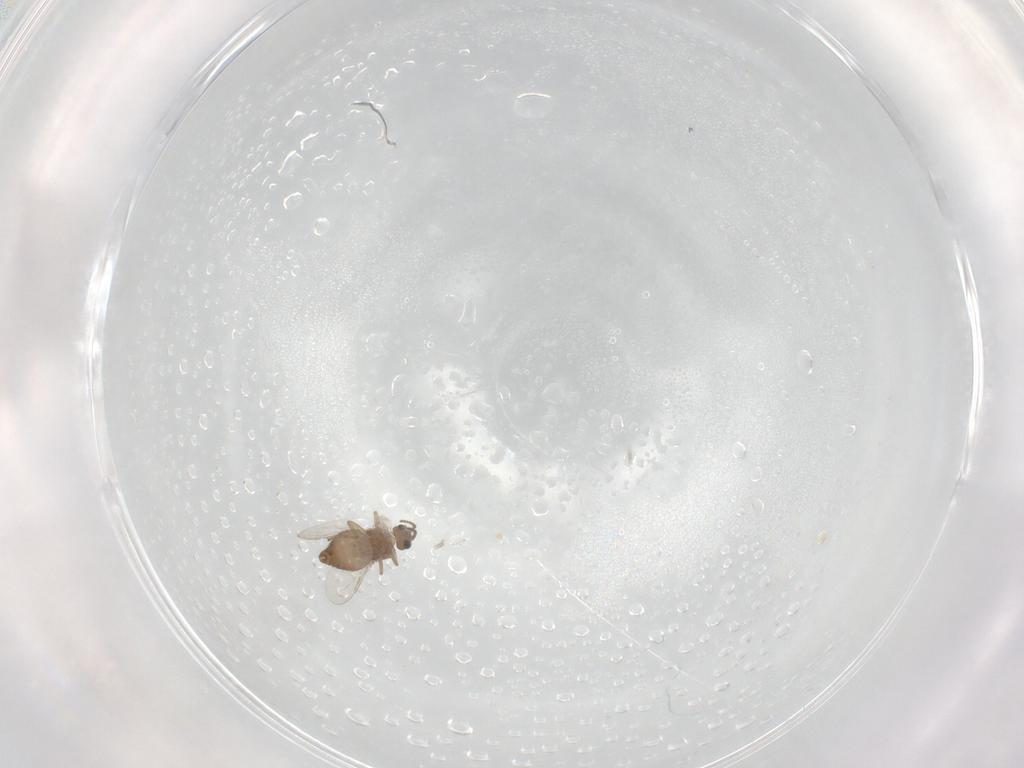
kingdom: Animalia
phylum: Arthropoda
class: Insecta
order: Diptera
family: Ceratopogonidae
